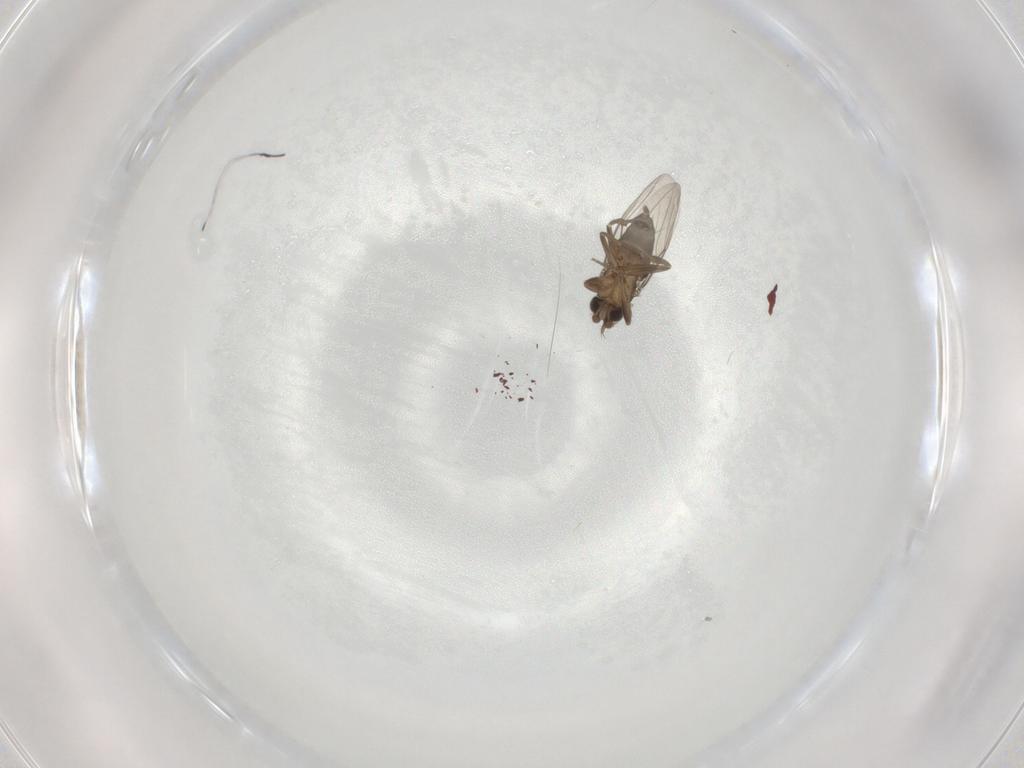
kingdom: Animalia
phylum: Arthropoda
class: Insecta
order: Diptera
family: Phoridae
